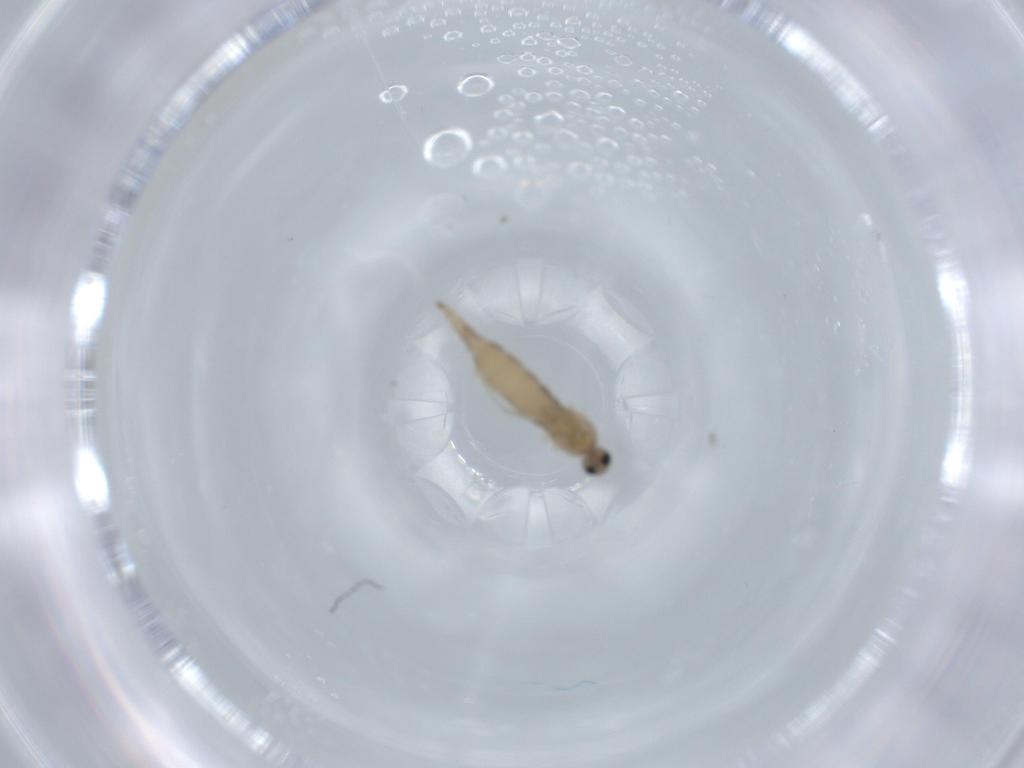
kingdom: Animalia
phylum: Arthropoda
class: Insecta
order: Diptera
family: Cecidomyiidae
